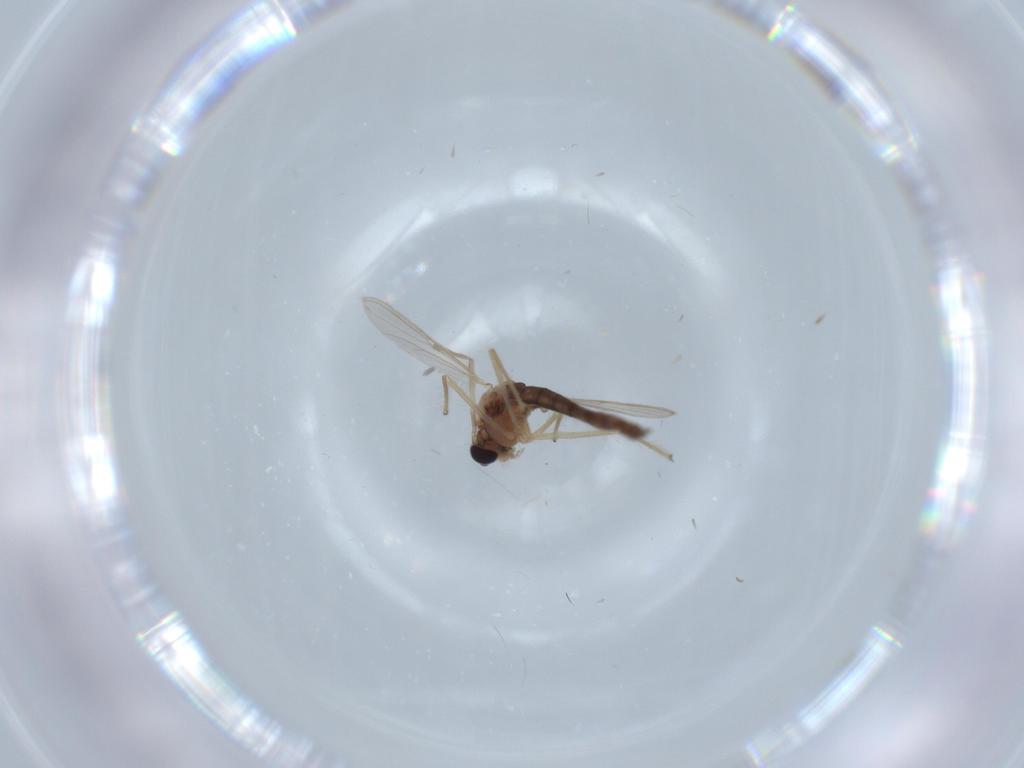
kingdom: Animalia
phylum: Arthropoda
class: Insecta
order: Diptera
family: Chironomidae
